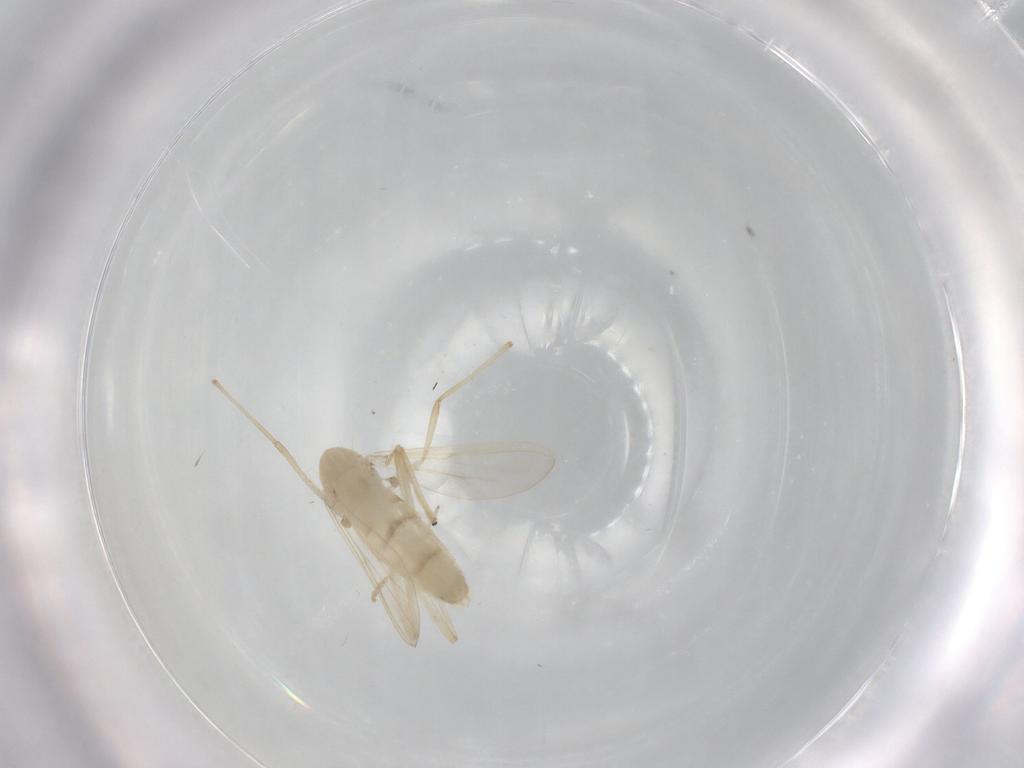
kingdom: Animalia
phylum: Arthropoda
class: Insecta
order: Diptera
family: Chironomidae
